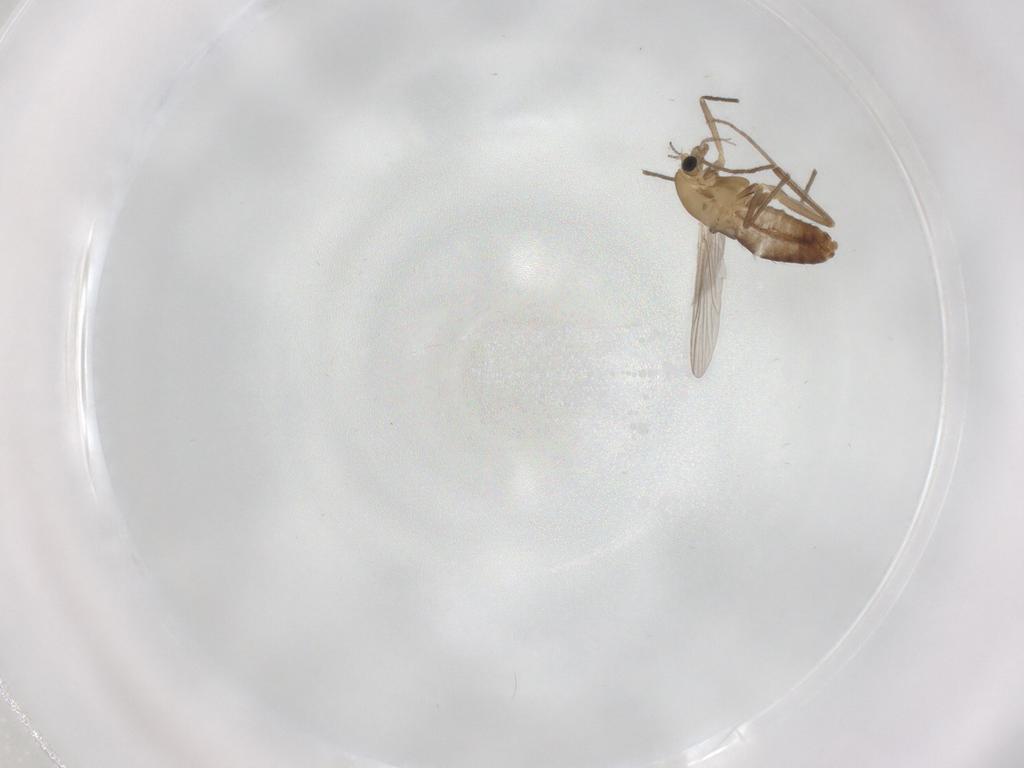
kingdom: Animalia
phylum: Arthropoda
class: Insecta
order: Diptera
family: Chironomidae
